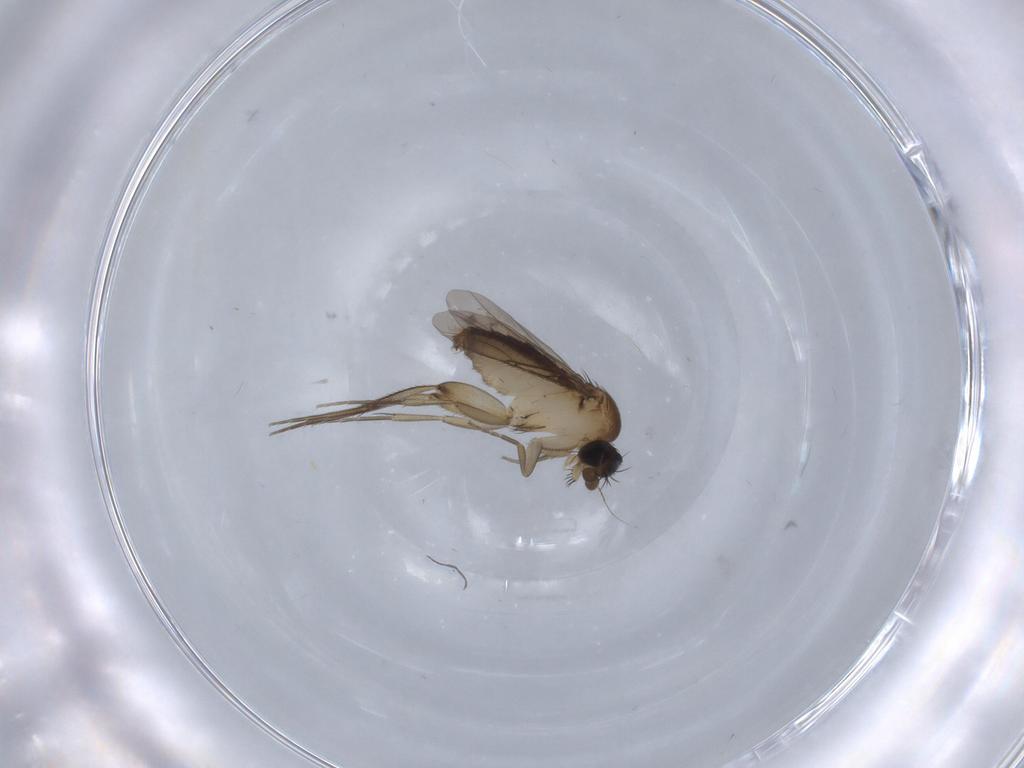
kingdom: Animalia
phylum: Arthropoda
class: Insecta
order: Diptera
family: Phoridae
